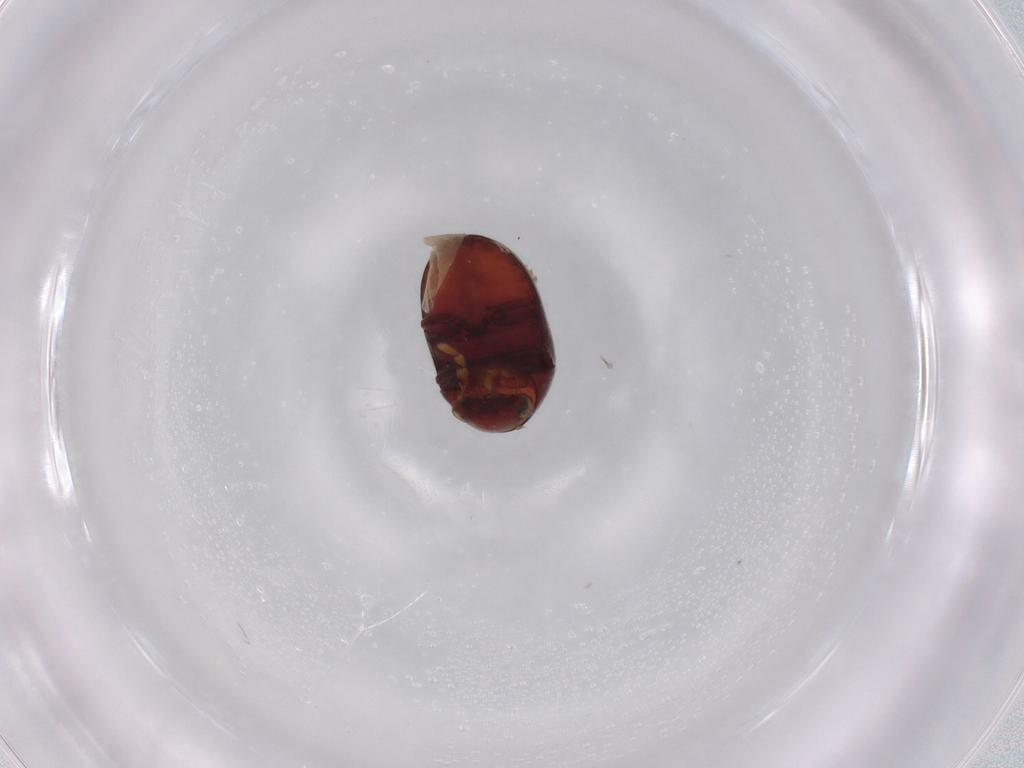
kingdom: Animalia
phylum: Arthropoda
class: Insecta
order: Coleoptera
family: Ptinidae
